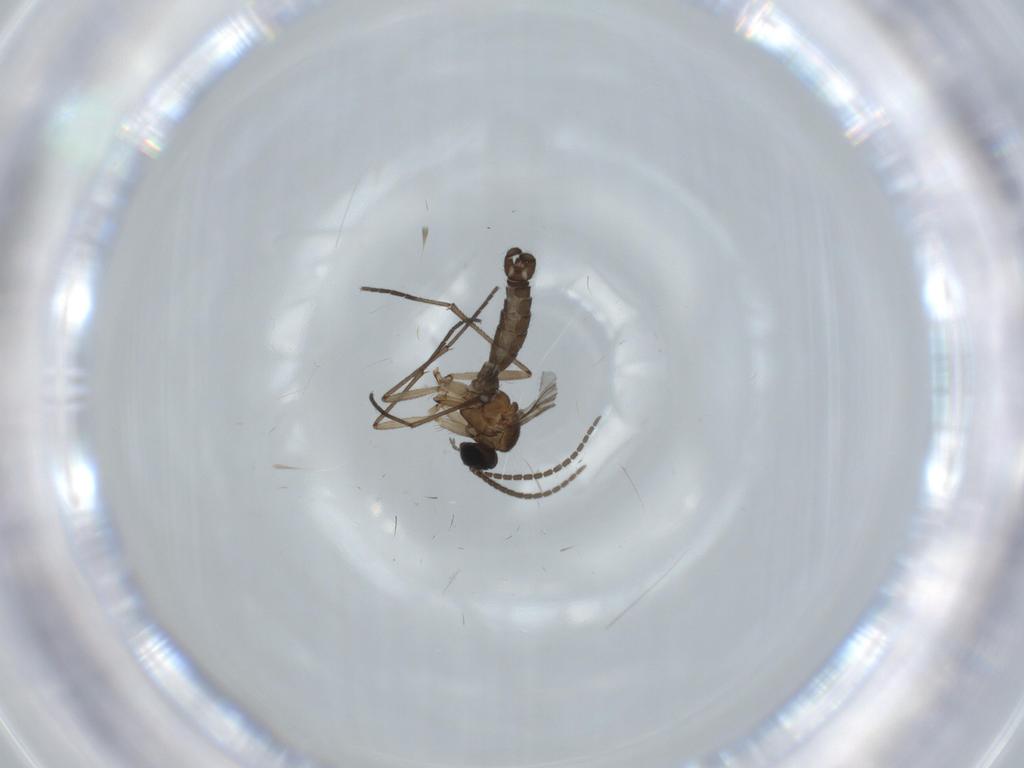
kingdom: Animalia
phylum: Arthropoda
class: Insecta
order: Diptera
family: Sciaridae
